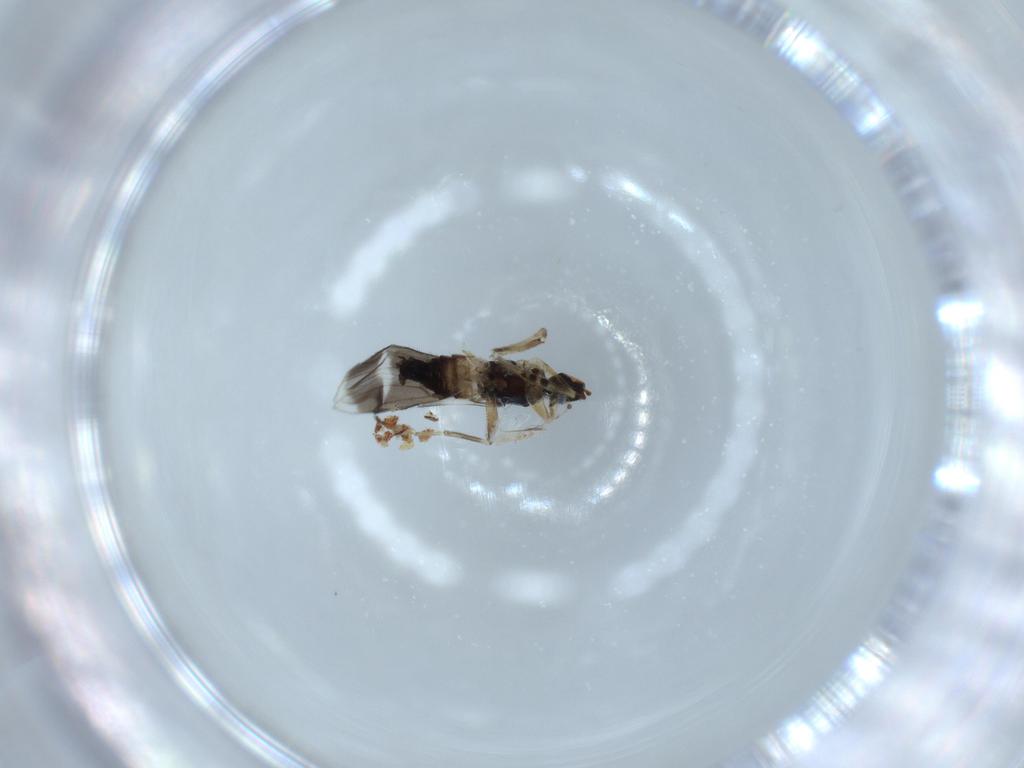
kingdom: Animalia
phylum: Arthropoda
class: Insecta
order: Diptera
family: Hybotidae
